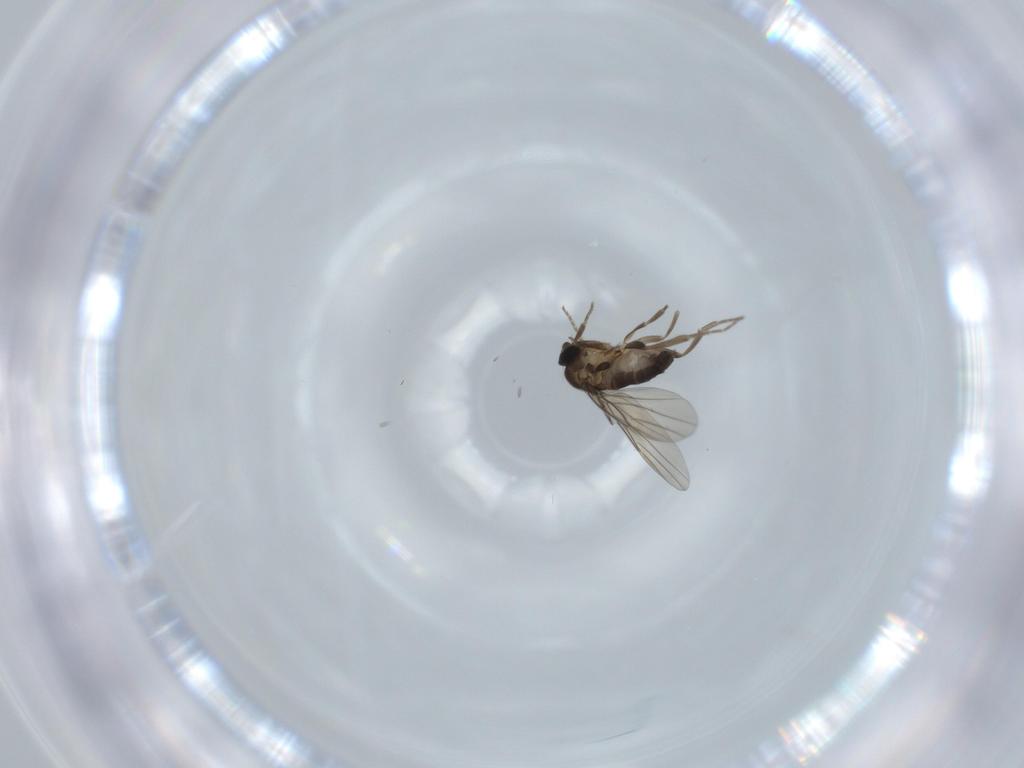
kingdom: Animalia
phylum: Arthropoda
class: Insecta
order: Diptera
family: Phoridae
